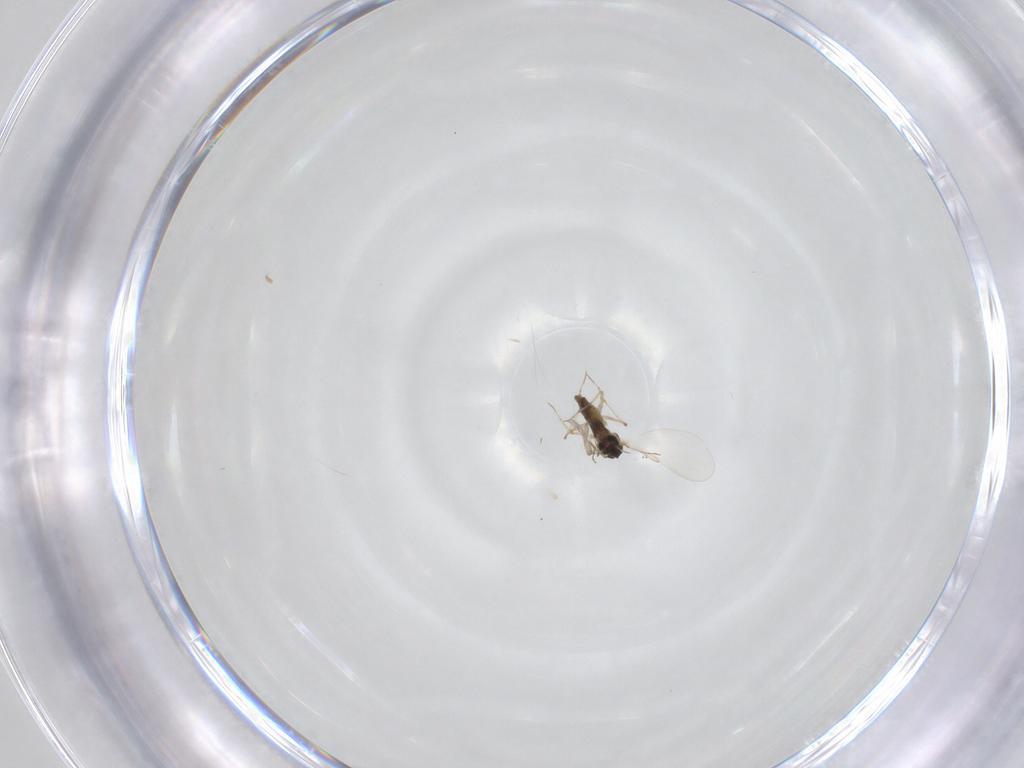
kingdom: Animalia
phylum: Arthropoda
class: Insecta
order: Diptera
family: Chironomidae
